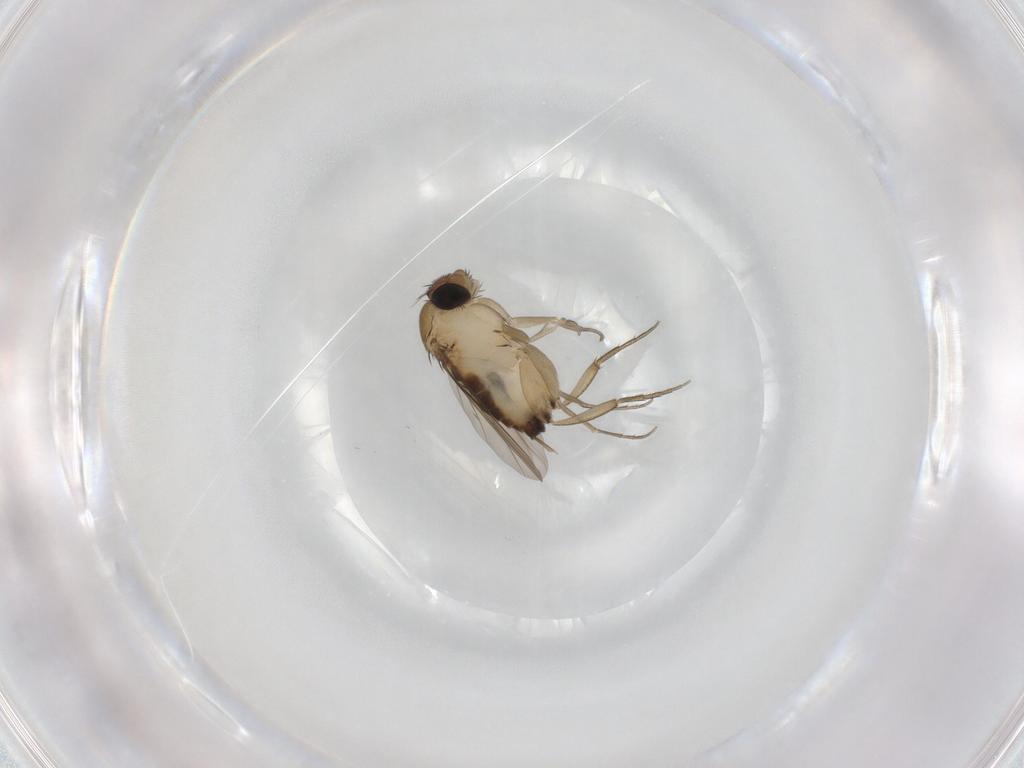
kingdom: Animalia
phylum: Arthropoda
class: Insecta
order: Diptera
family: Phoridae
